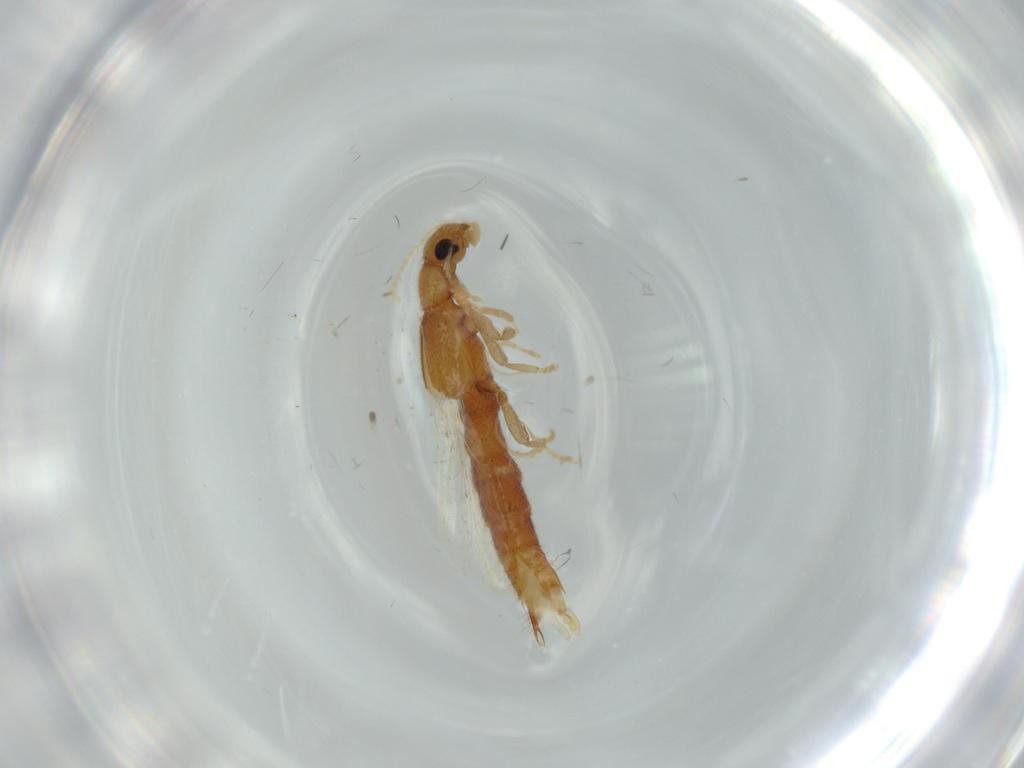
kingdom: Animalia
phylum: Arthropoda
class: Insecta
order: Coleoptera
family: Staphylinidae
